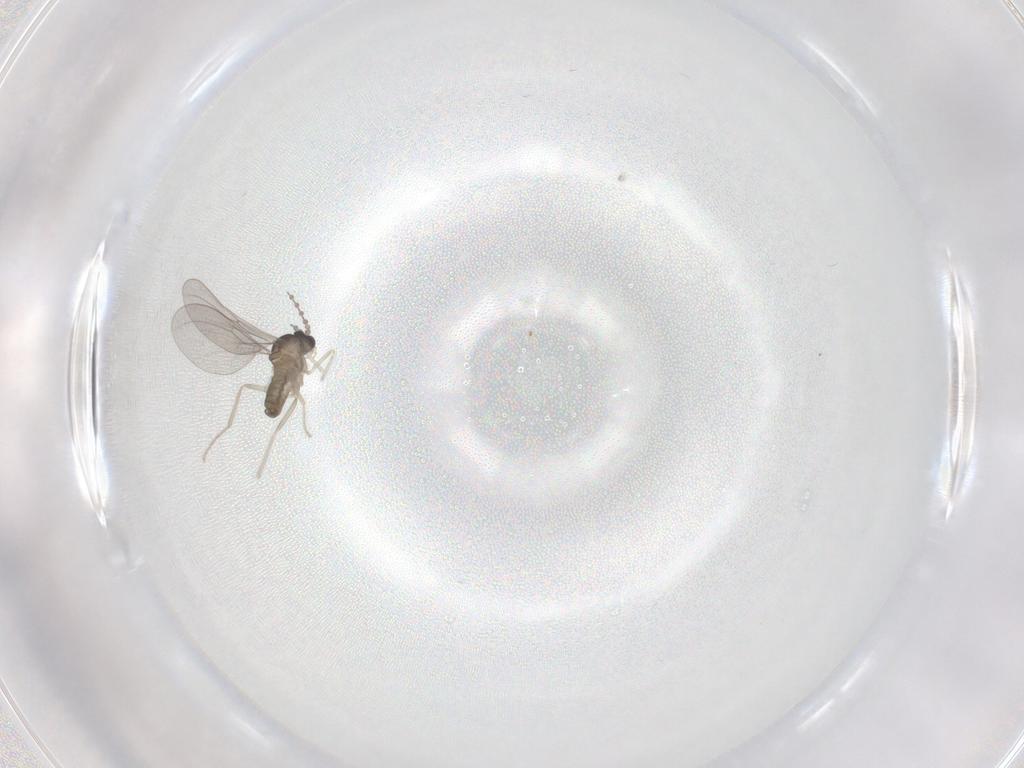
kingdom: Animalia
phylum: Arthropoda
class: Insecta
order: Diptera
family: Cecidomyiidae
